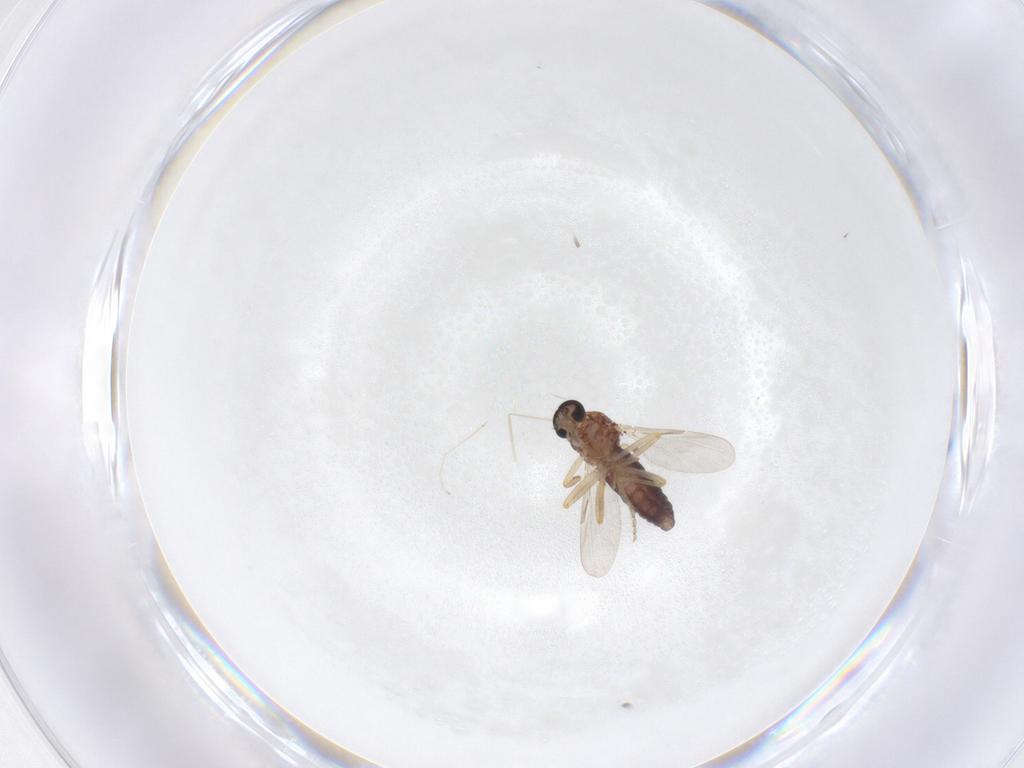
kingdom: Animalia
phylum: Arthropoda
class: Insecta
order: Diptera
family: Ceratopogonidae
